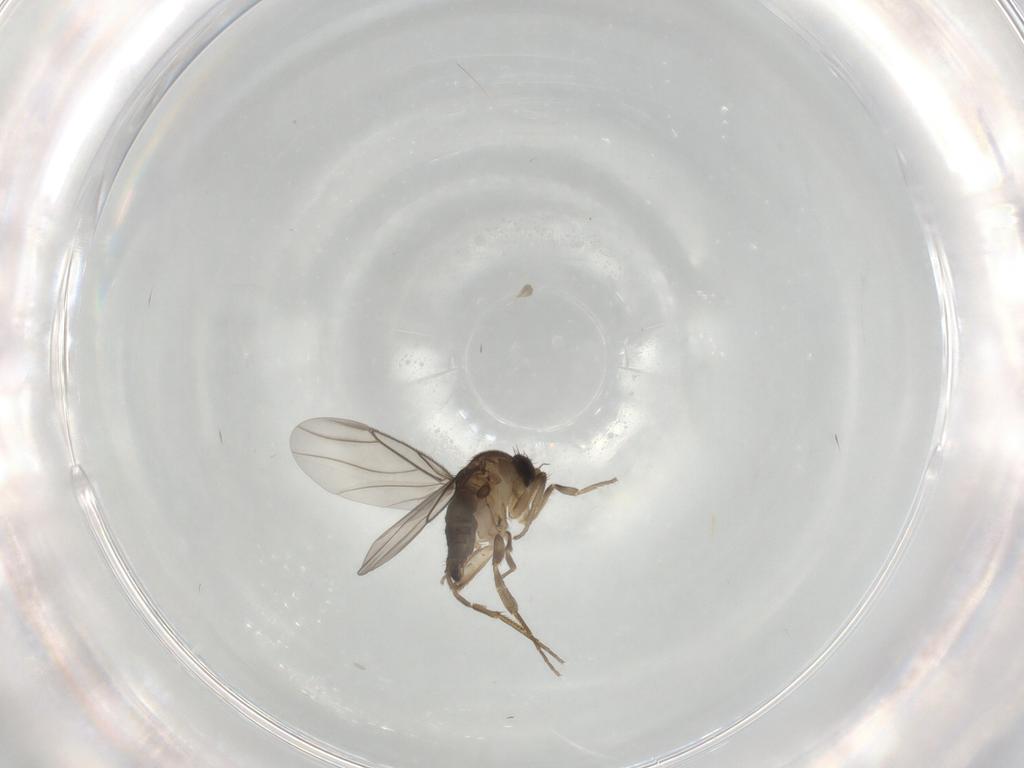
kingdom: Animalia
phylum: Arthropoda
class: Insecta
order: Diptera
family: Phoridae
